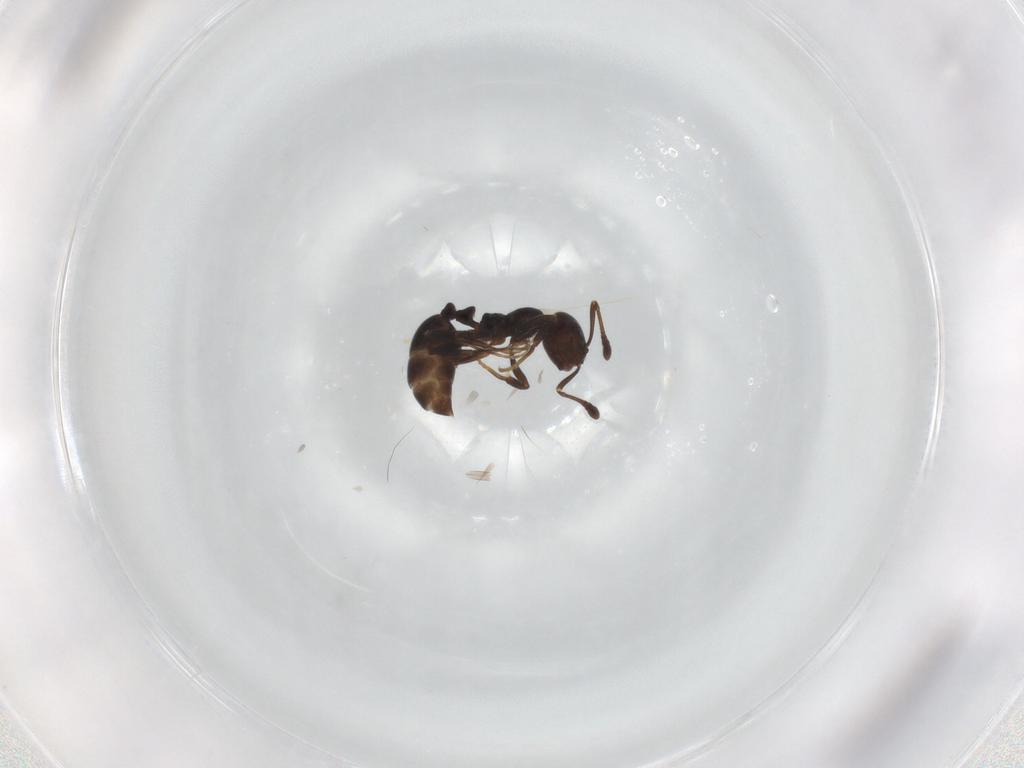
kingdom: Animalia
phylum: Arthropoda
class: Insecta
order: Hymenoptera
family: Formicidae
